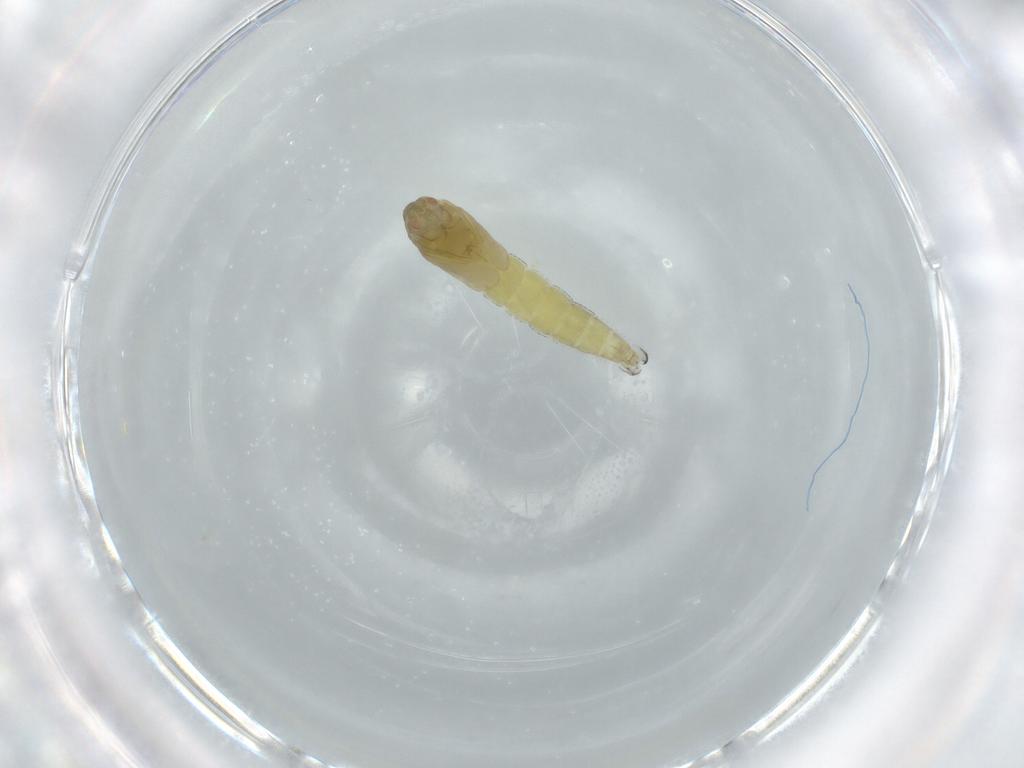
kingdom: Animalia
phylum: Arthropoda
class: Insecta
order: Diptera
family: Chironomidae
